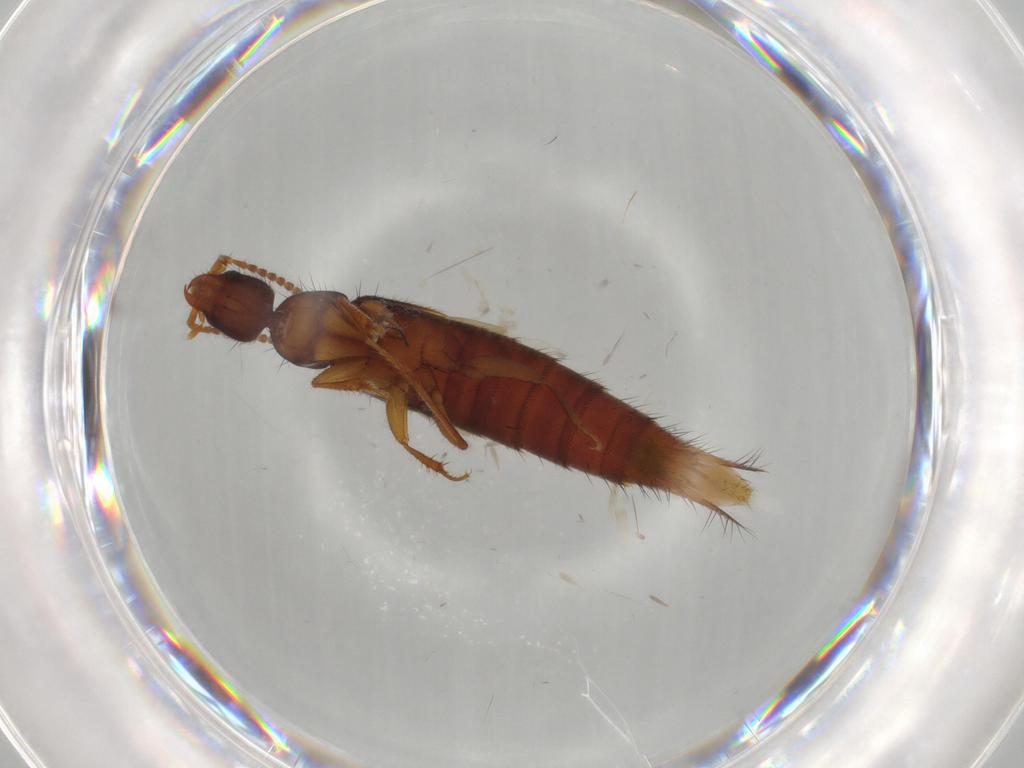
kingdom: Animalia
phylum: Arthropoda
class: Insecta
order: Coleoptera
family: Staphylinidae
